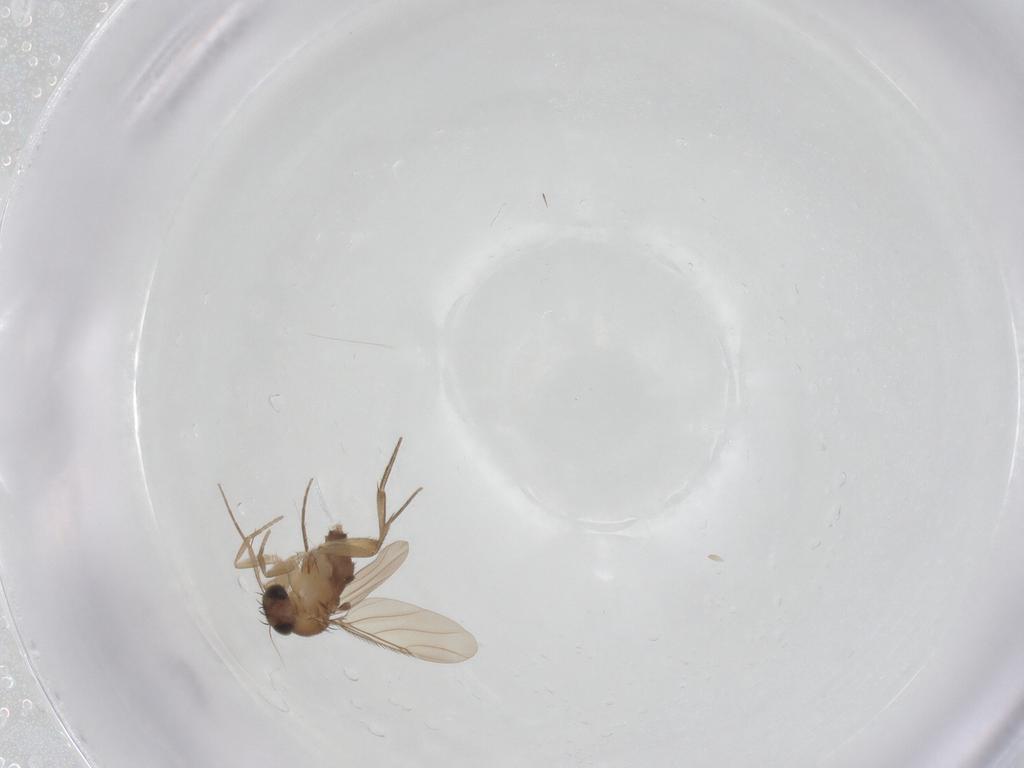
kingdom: Animalia
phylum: Arthropoda
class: Insecta
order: Diptera
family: Phoridae
